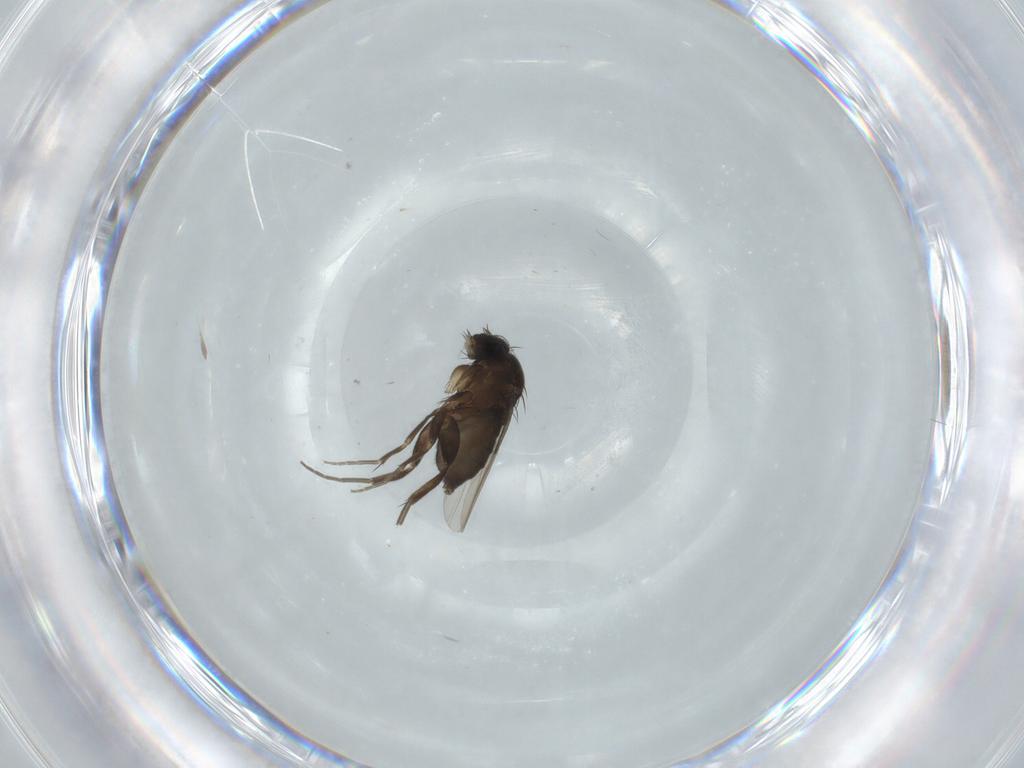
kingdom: Animalia
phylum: Arthropoda
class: Insecta
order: Diptera
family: Phoridae
